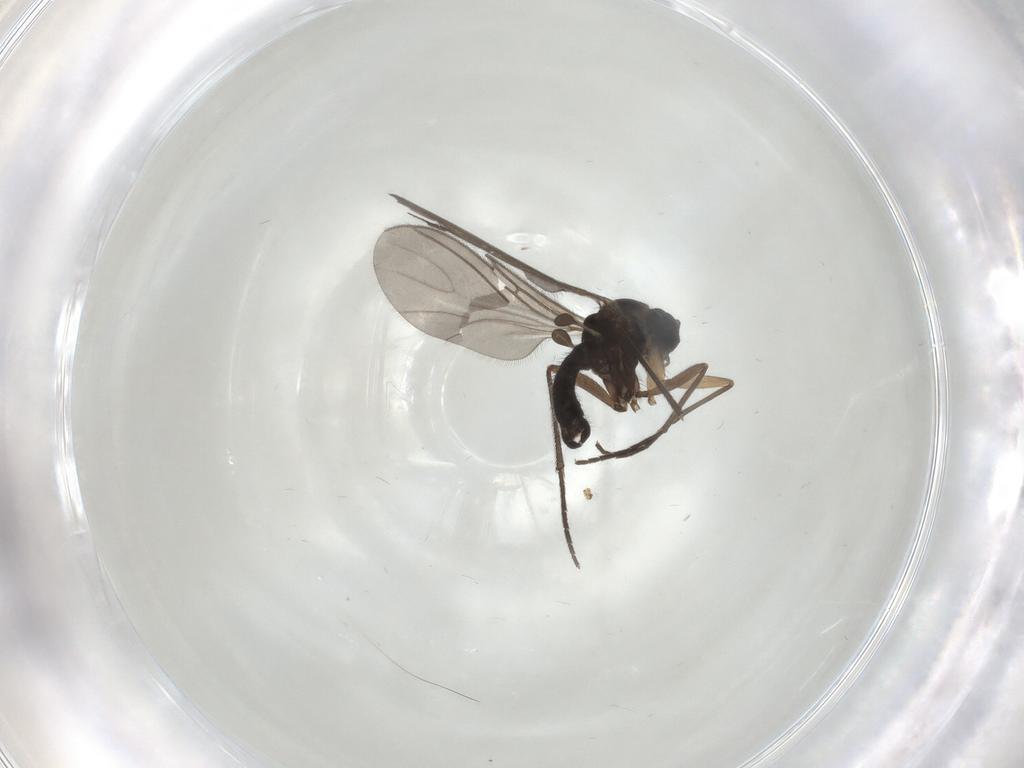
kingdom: Animalia
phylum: Arthropoda
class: Insecta
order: Diptera
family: Sciaridae
